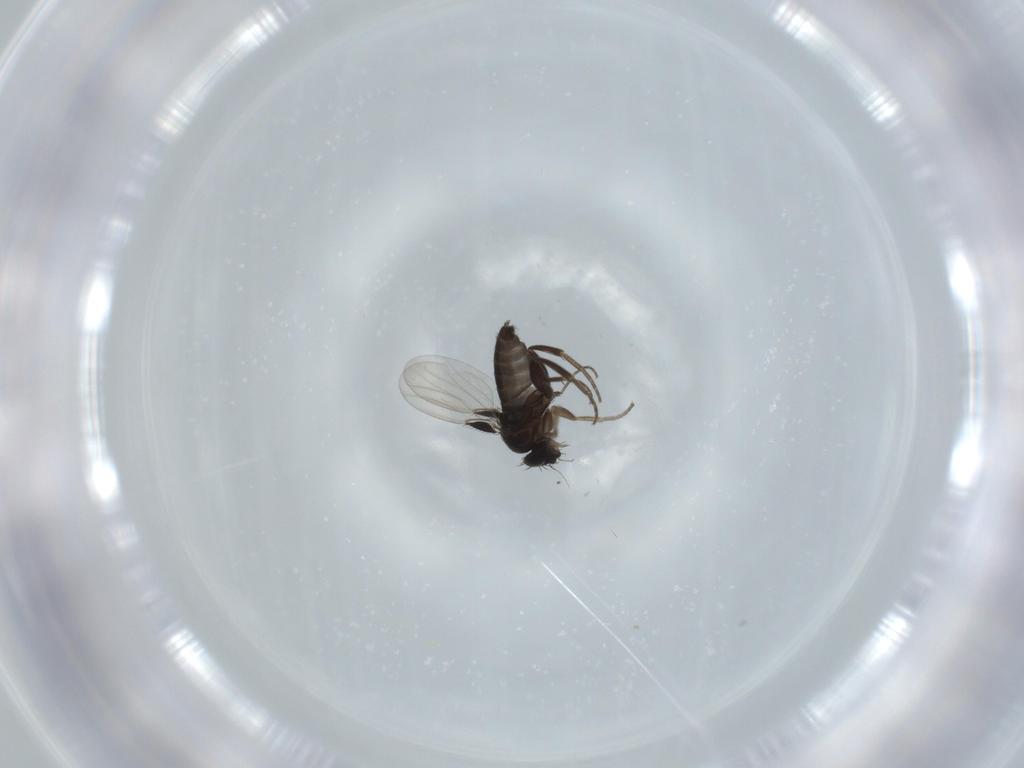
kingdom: Animalia
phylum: Arthropoda
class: Insecta
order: Diptera
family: Phoridae
